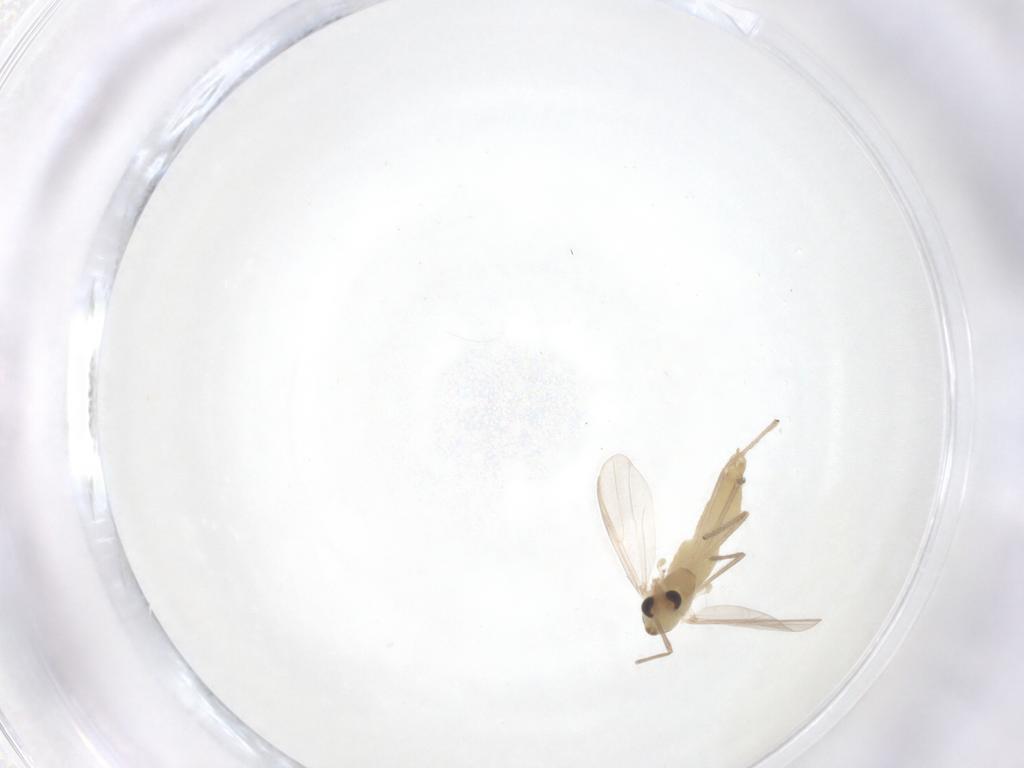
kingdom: Animalia
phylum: Arthropoda
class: Insecta
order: Diptera
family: Chironomidae
